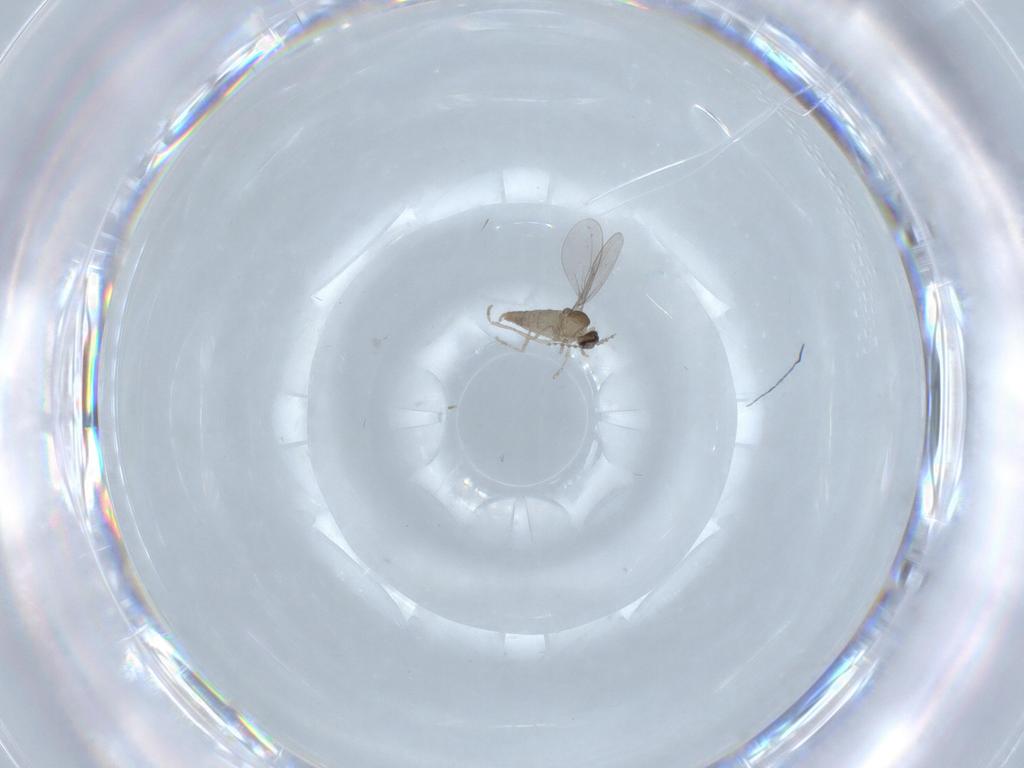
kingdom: Animalia
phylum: Arthropoda
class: Insecta
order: Diptera
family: Cecidomyiidae
